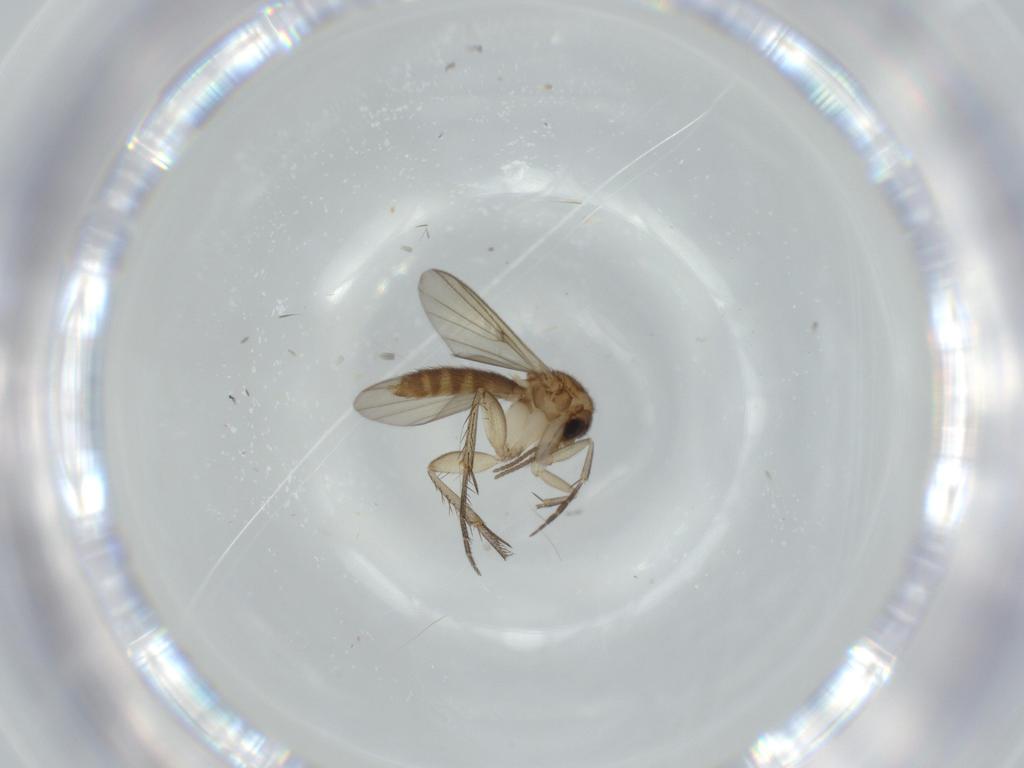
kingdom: Animalia
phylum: Arthropoda
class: Insecta
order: Diptera
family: Mycetophilidae
